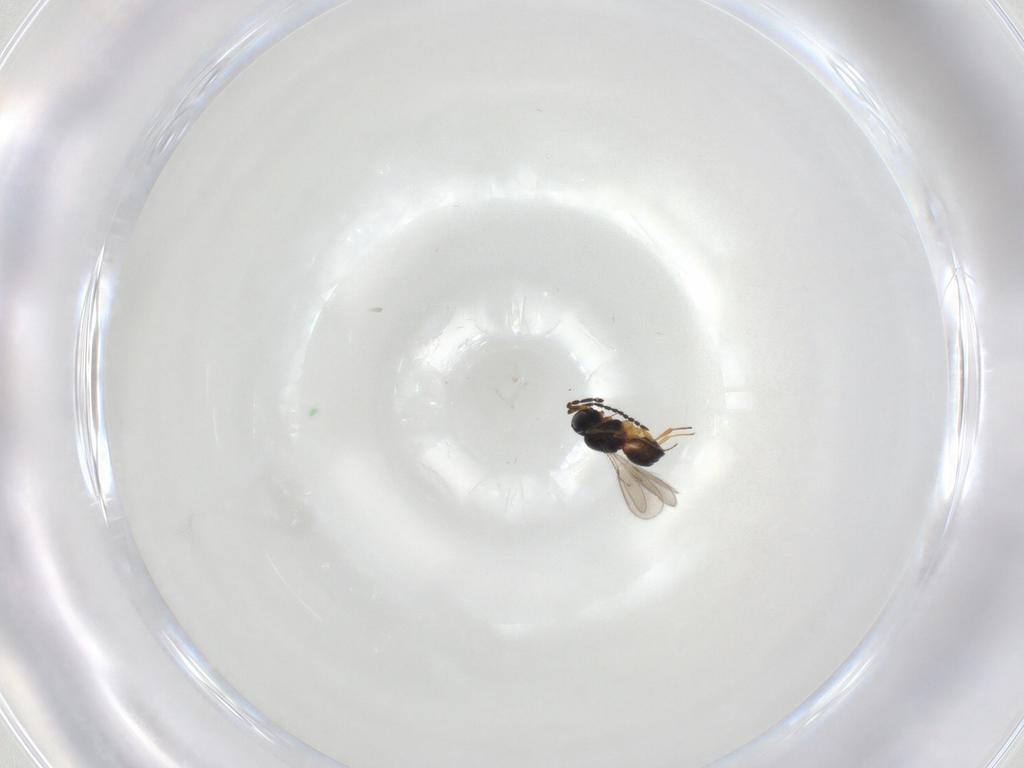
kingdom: Animalia
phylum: Arthropoda
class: Insecta
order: Hymenoptera
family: Scelionidae
